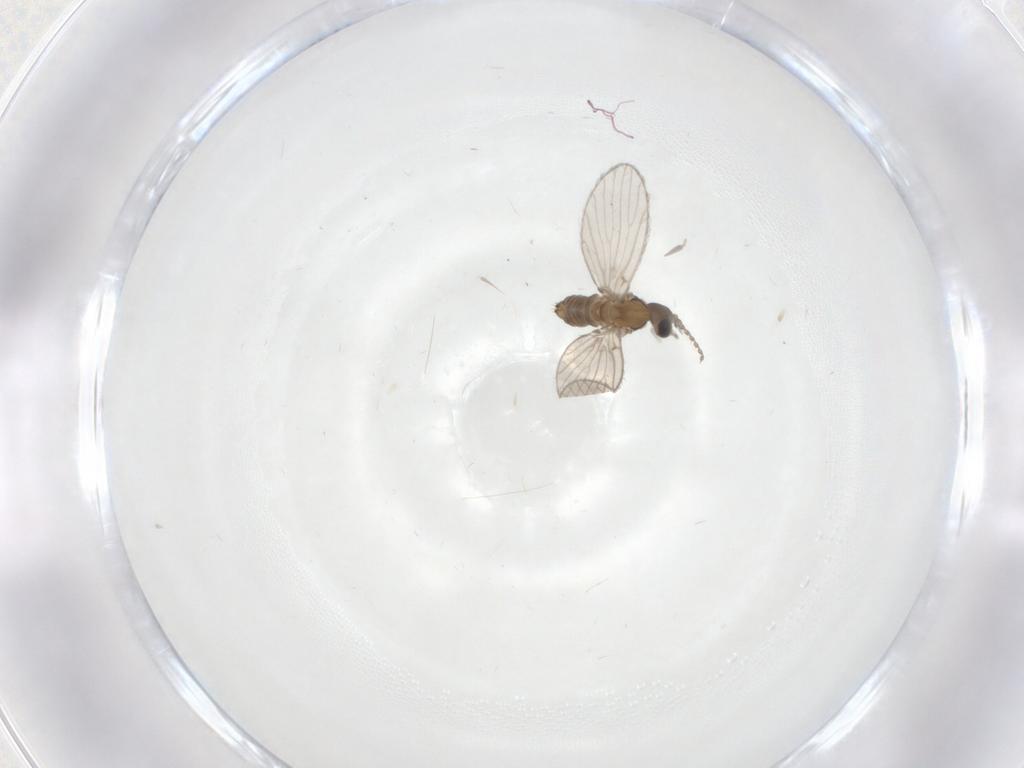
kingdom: Animalia
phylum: Arthropoda
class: Insecta
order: Diptera
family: Psychodidae
